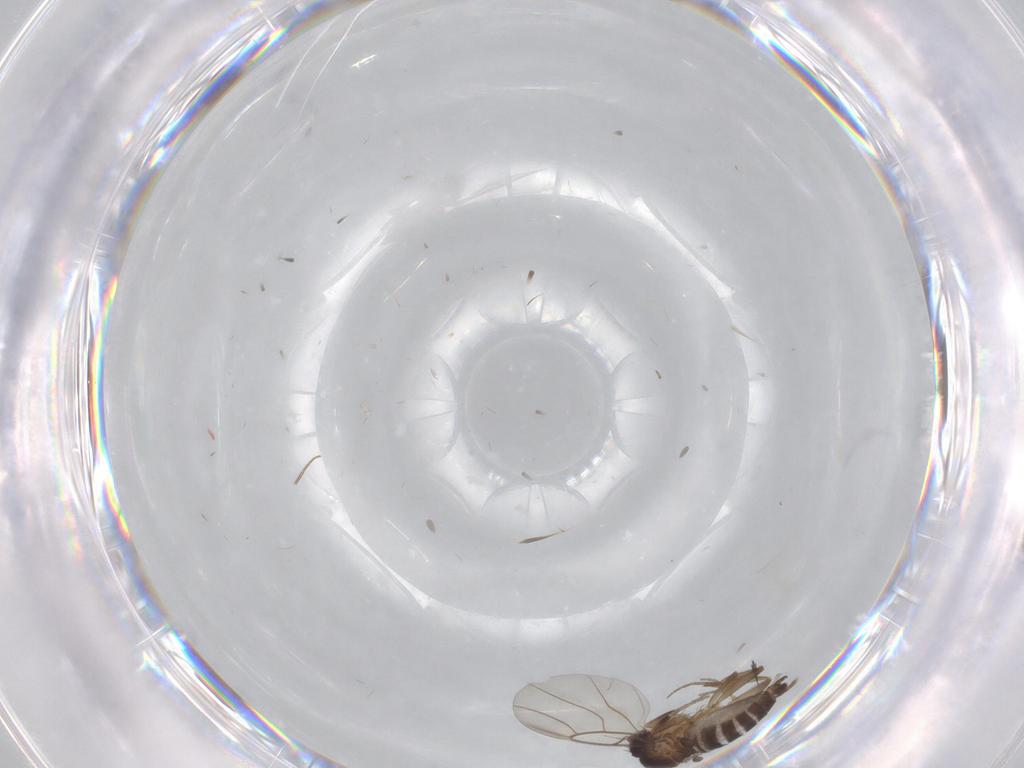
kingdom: Animalia
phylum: Arthropoda
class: Insecta
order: Diptera
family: Phoridae
